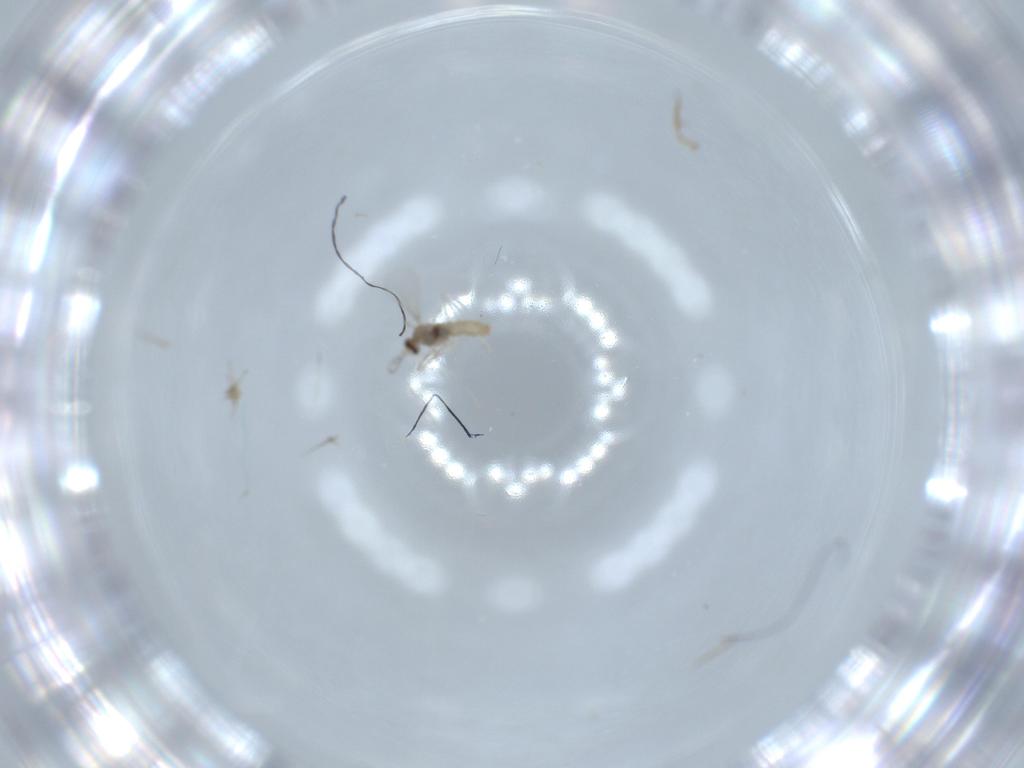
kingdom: Animalia
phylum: Arthropoda
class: Insecta
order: Diptera
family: Cecidomyiidae
